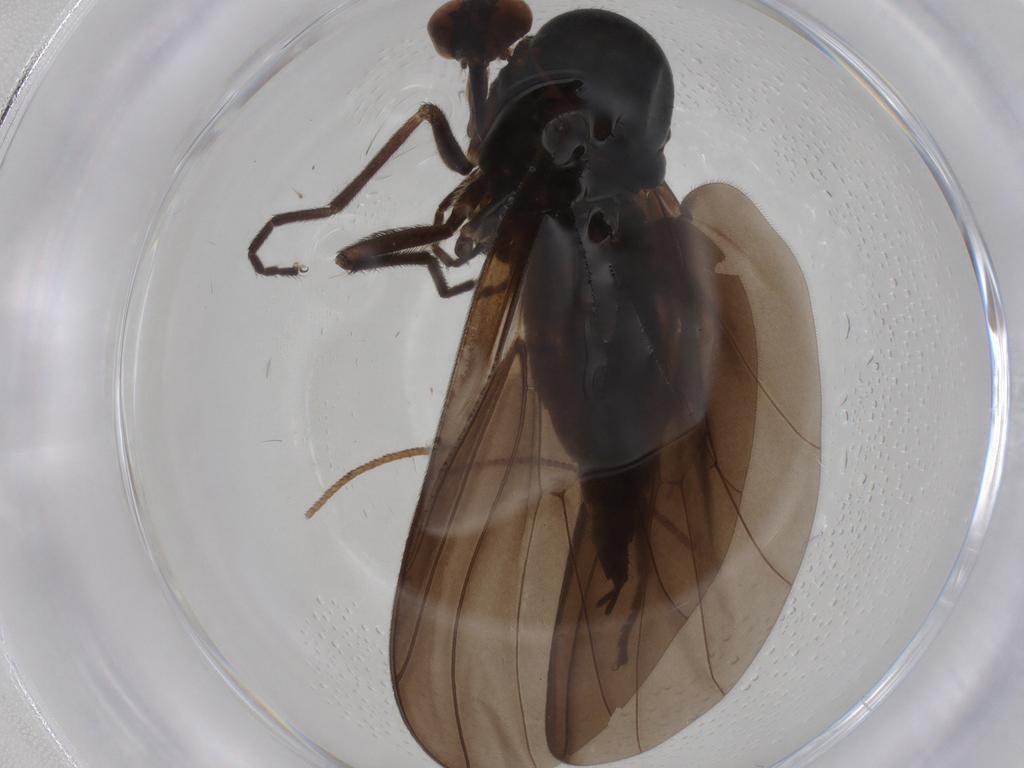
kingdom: Animalia
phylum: Arthropoda
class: Insecta
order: Diptera
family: Empididae
